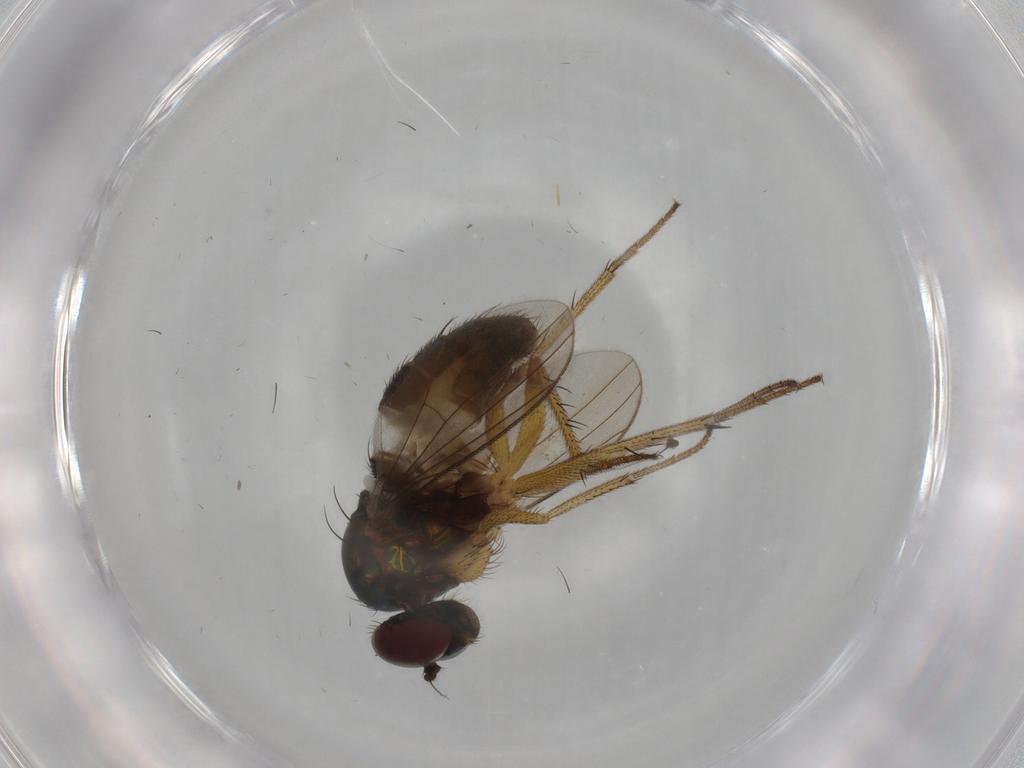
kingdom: Animalia
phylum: Arthropoda
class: Insecta
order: Diptera
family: Dolichopodidae
